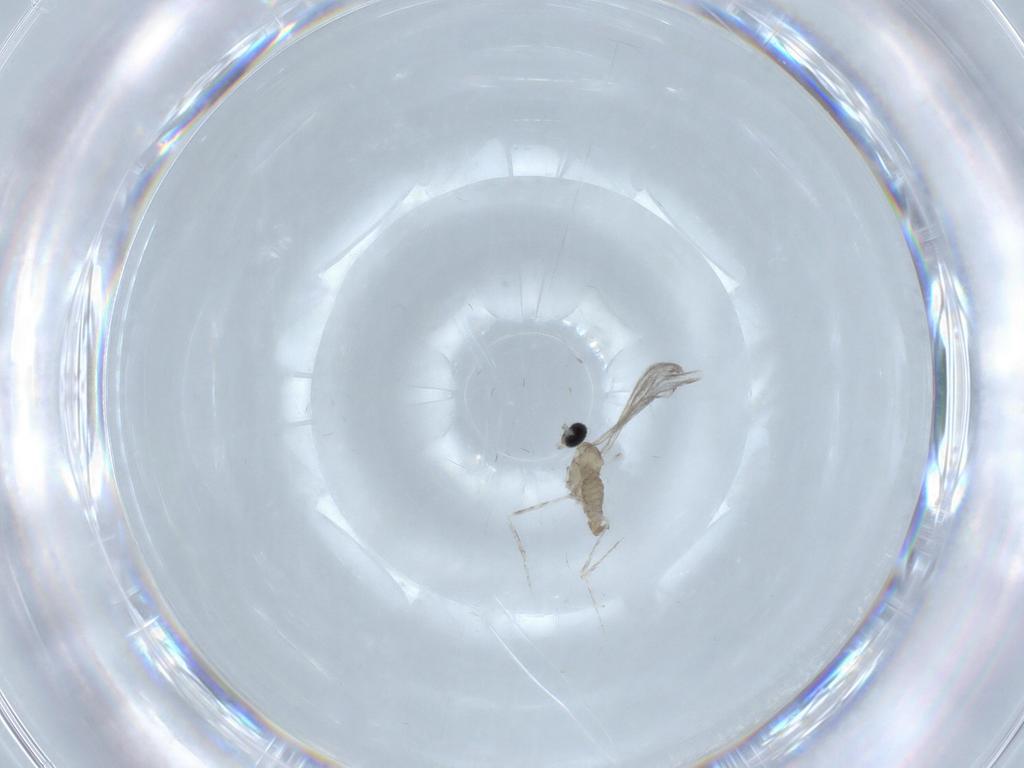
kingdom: Animalia
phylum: Arthropoda
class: Insecta
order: Diptera
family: Cecidomyiidae
